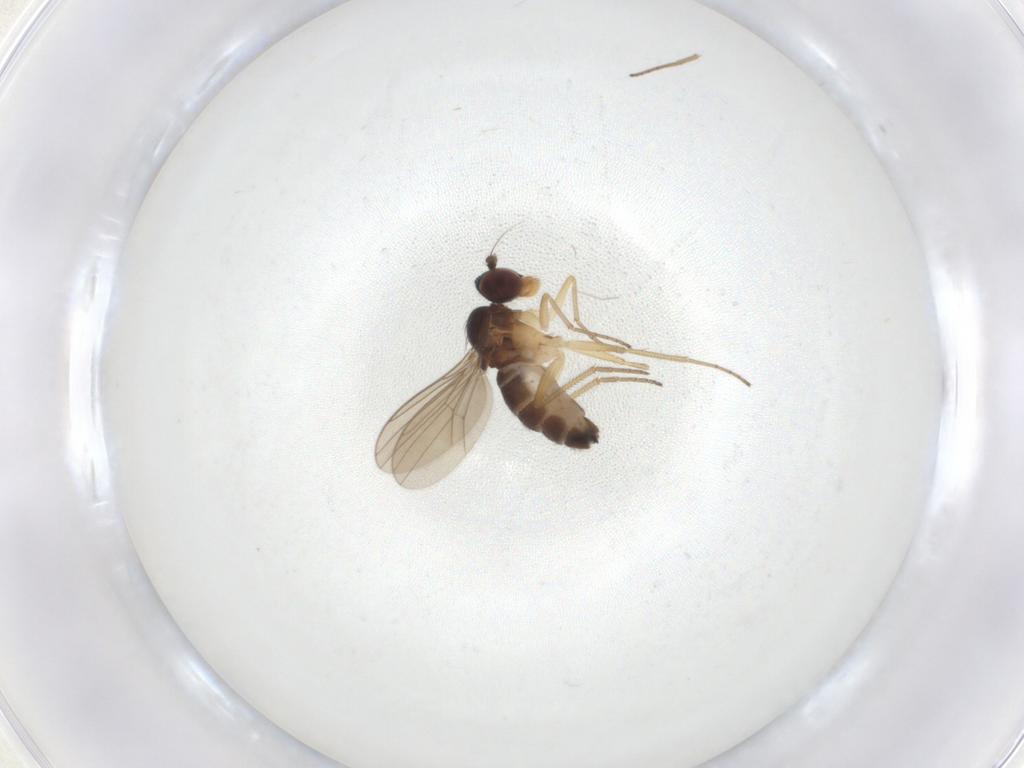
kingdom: Animalia
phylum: Arthropoda
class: Insecta
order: Diptera
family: Dolichopodidae
